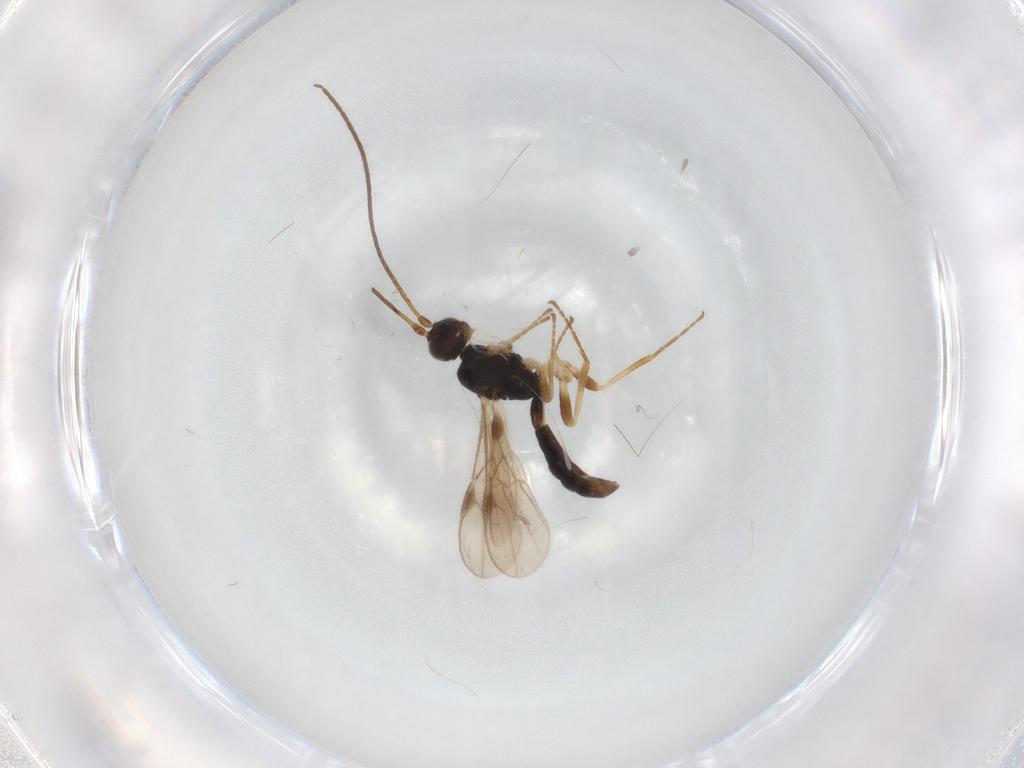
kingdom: Animalia
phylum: Arthropoda
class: Insecta
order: Hymenoptera
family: Braconidae
